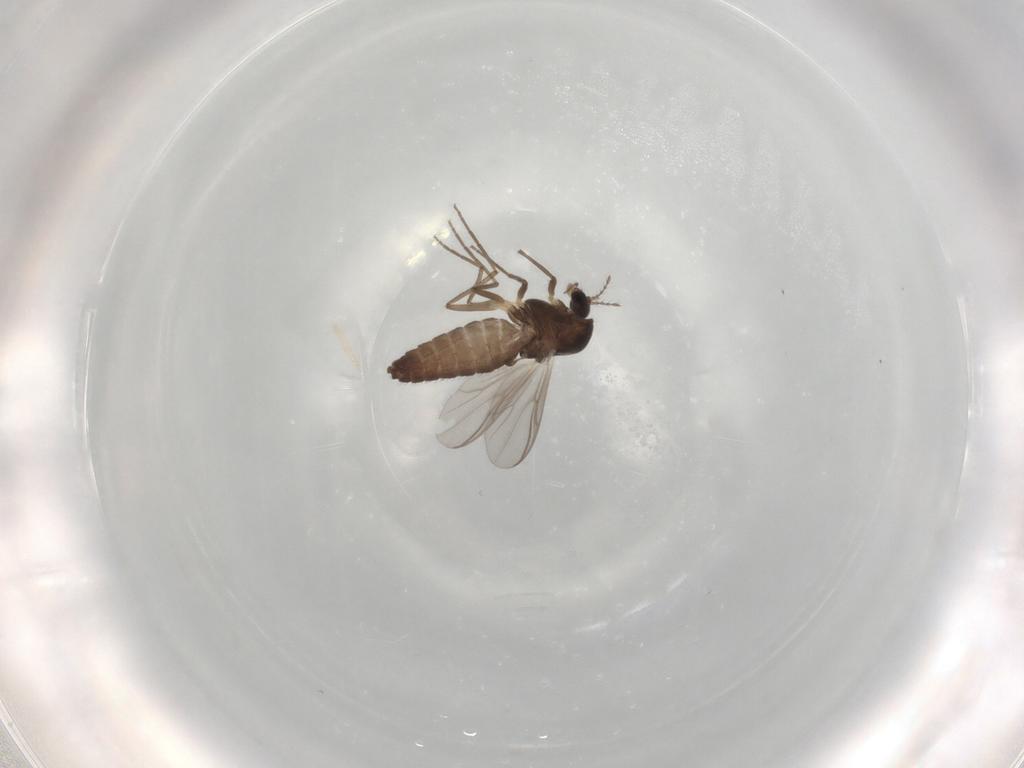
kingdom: Animalia
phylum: Arthropoda
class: Insecta
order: Diptera
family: Chironomidae
